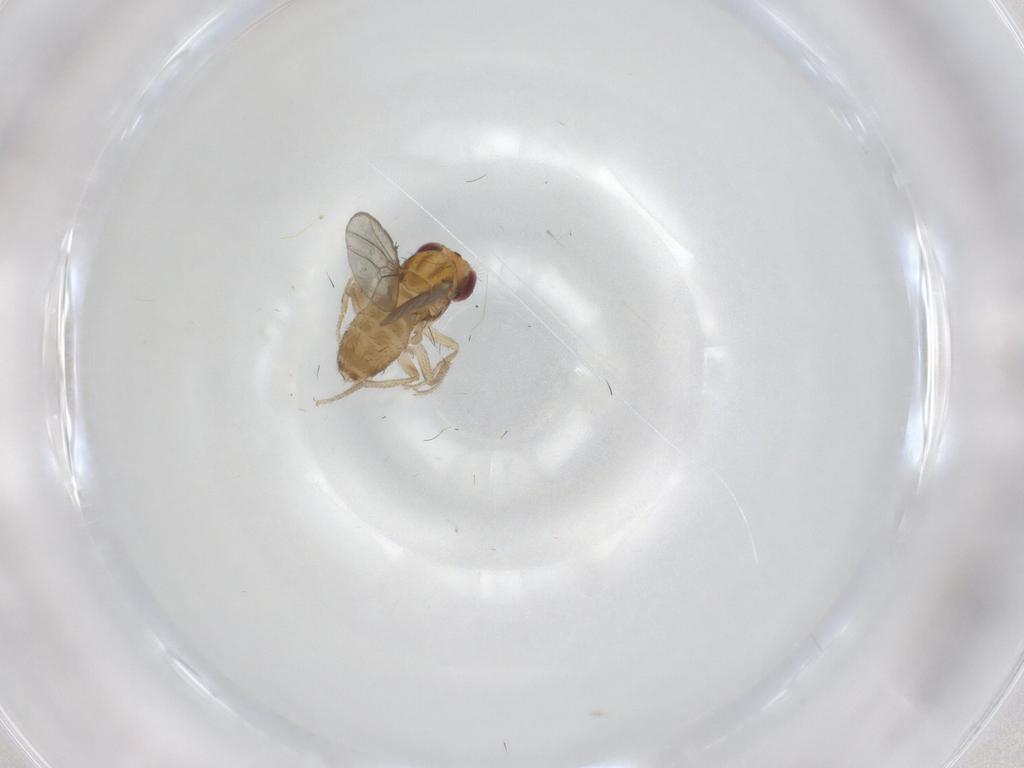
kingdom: Animalia
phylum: Arthropoda
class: Insecta
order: Diptera
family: Drosophilidae
